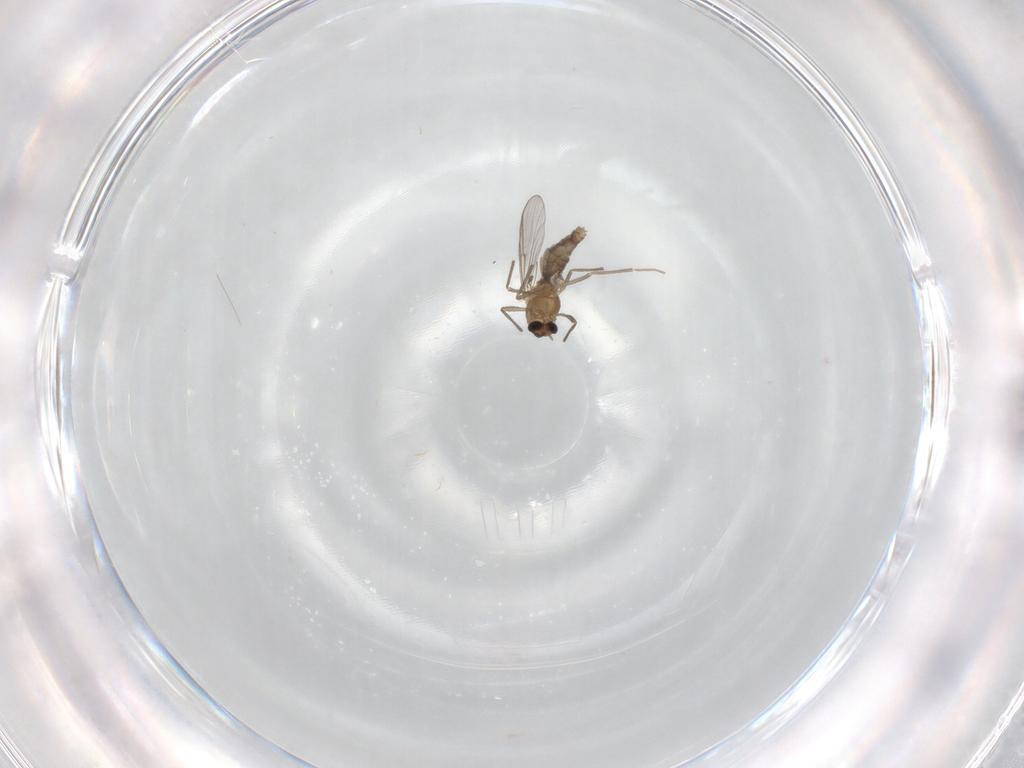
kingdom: Animalia
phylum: Arthropoda
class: Insecta
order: Diptera
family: Chironomidae
